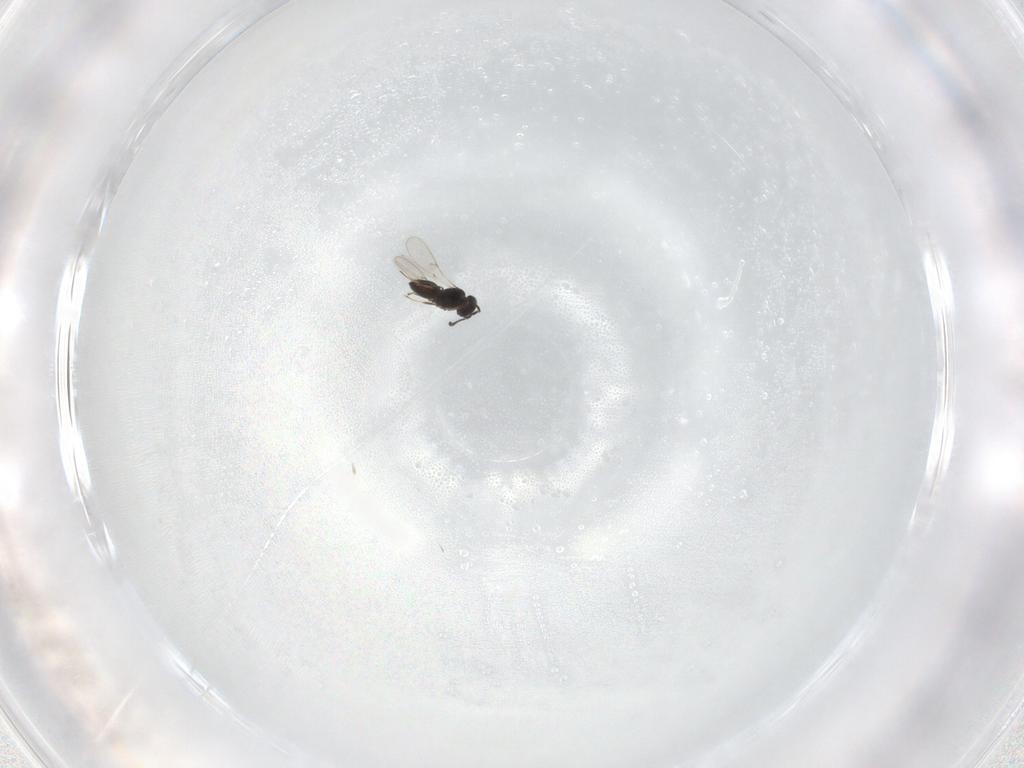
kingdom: Animalia
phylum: Arthropoda
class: Insecta
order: Hymenoptera
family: Scelionidae
